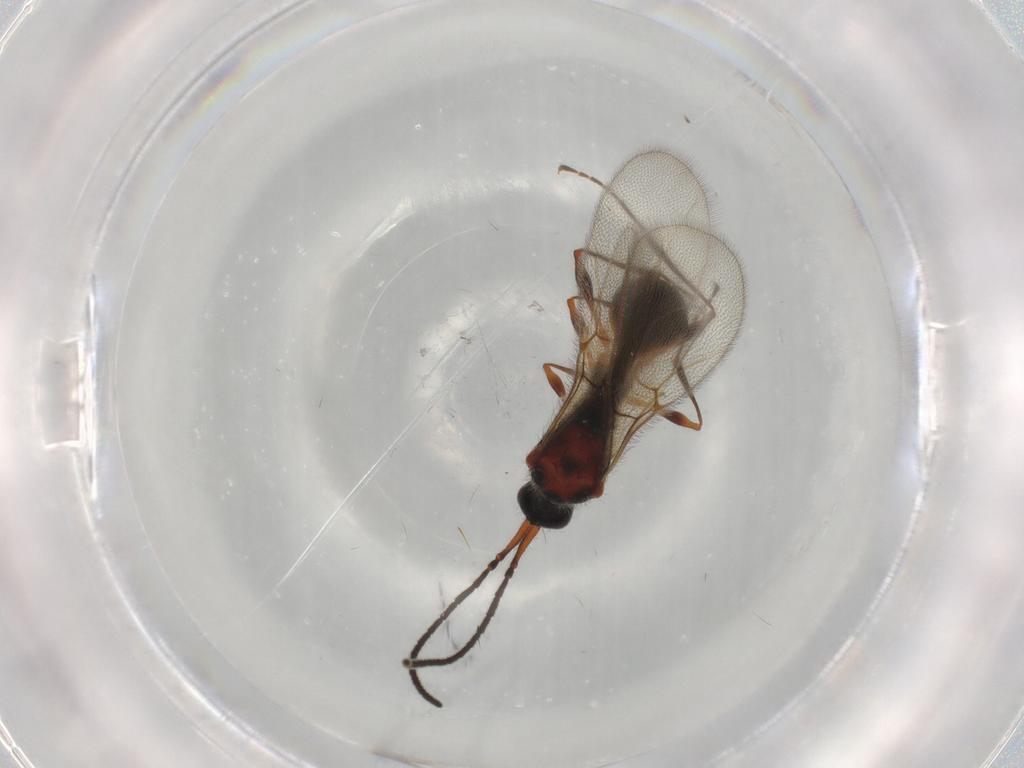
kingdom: Animalia
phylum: Arthropoda
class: Insecta
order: Hymenoptera
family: Diapriidae
